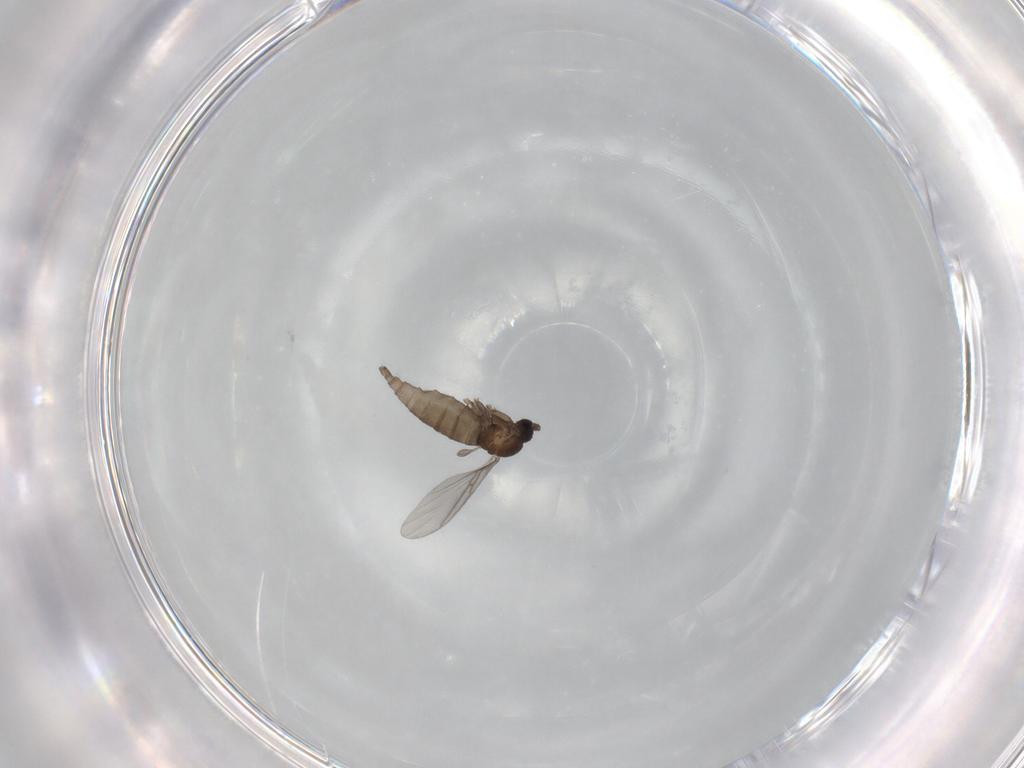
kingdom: Animalia
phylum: Arthropoda
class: Insecta
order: Diptera
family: Sciaridae
